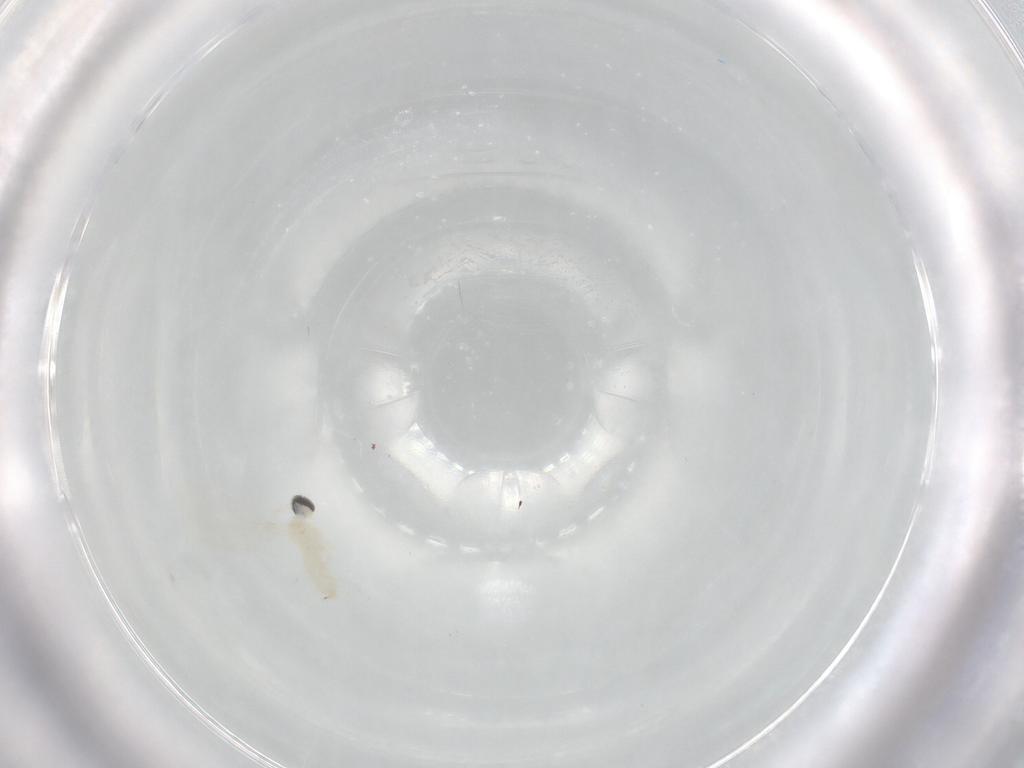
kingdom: Animalia
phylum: Arthropoda
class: Insecta
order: Diptera
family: Cecidomyiidae
